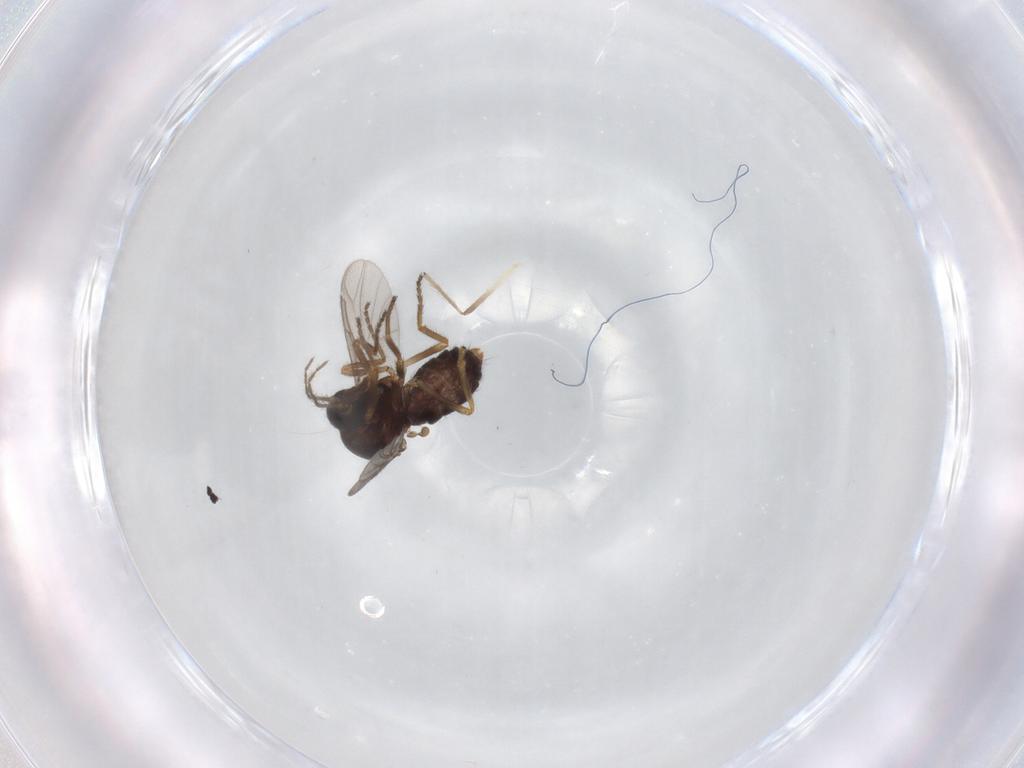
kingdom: Animalia
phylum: Arthropoda
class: Insecta
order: Diptera
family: Ceratopogonidae
